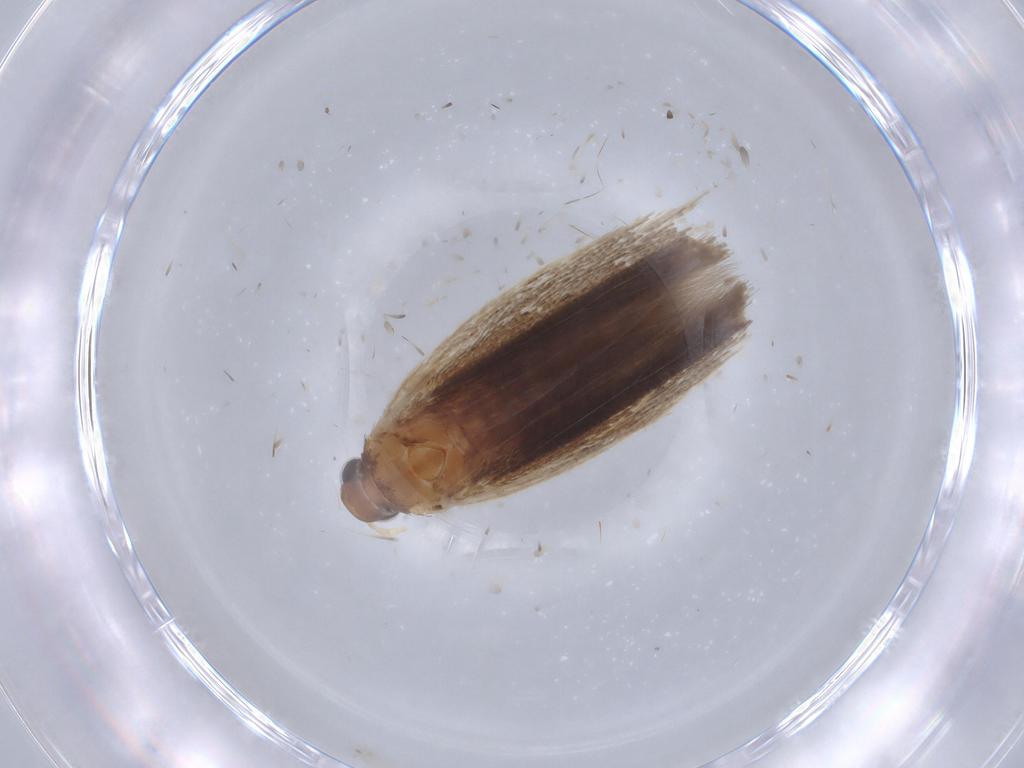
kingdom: Animalia
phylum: Arthropoda
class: Insecta
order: Lepidoptera
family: Gelechiidae
